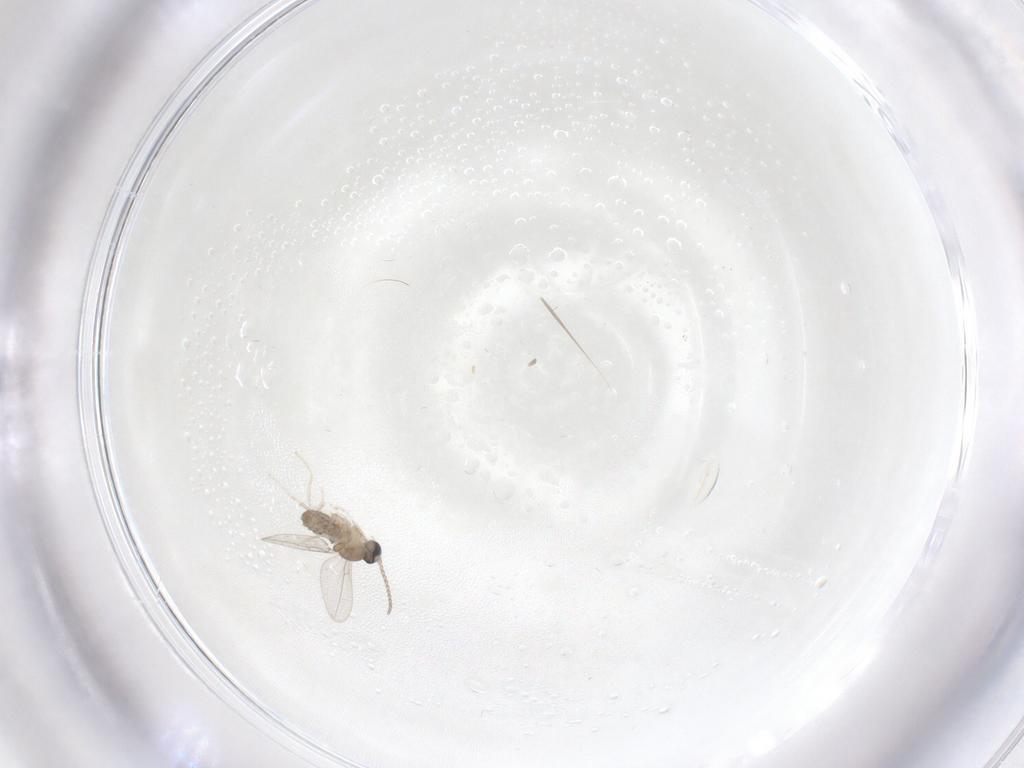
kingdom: Animalia
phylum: Arthropoda
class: Insecta
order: Diptera
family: Cecidomyiidae
